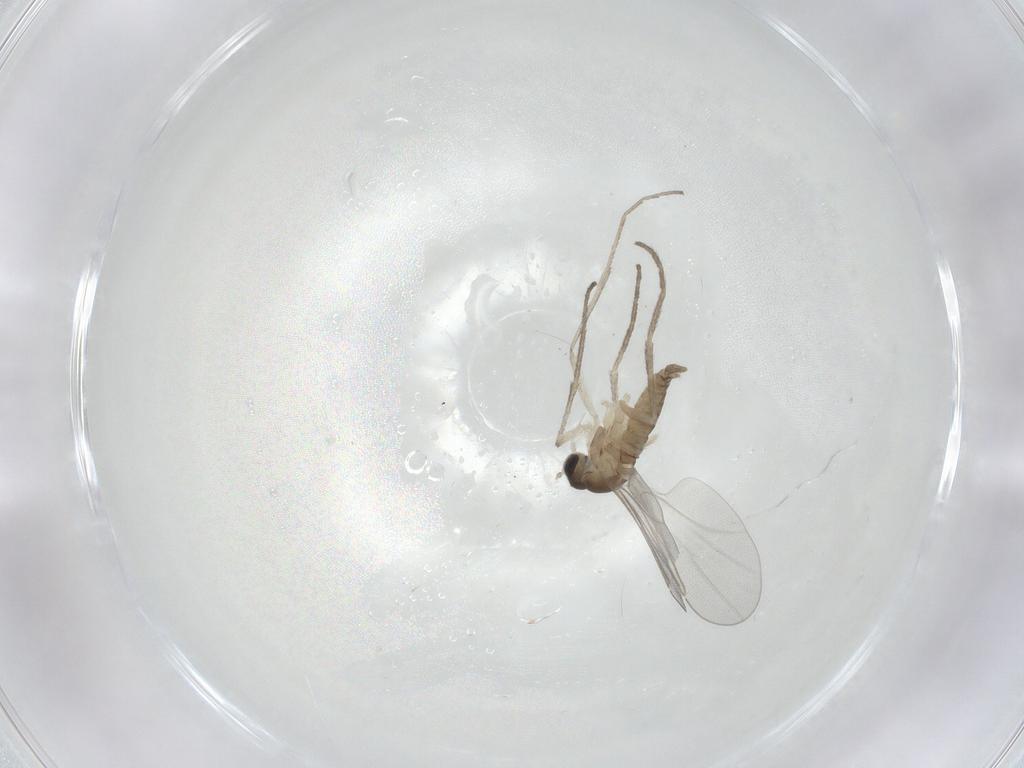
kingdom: Animalia
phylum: Arthropoda
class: Insecta
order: Diptera
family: Cecidomyiidae
